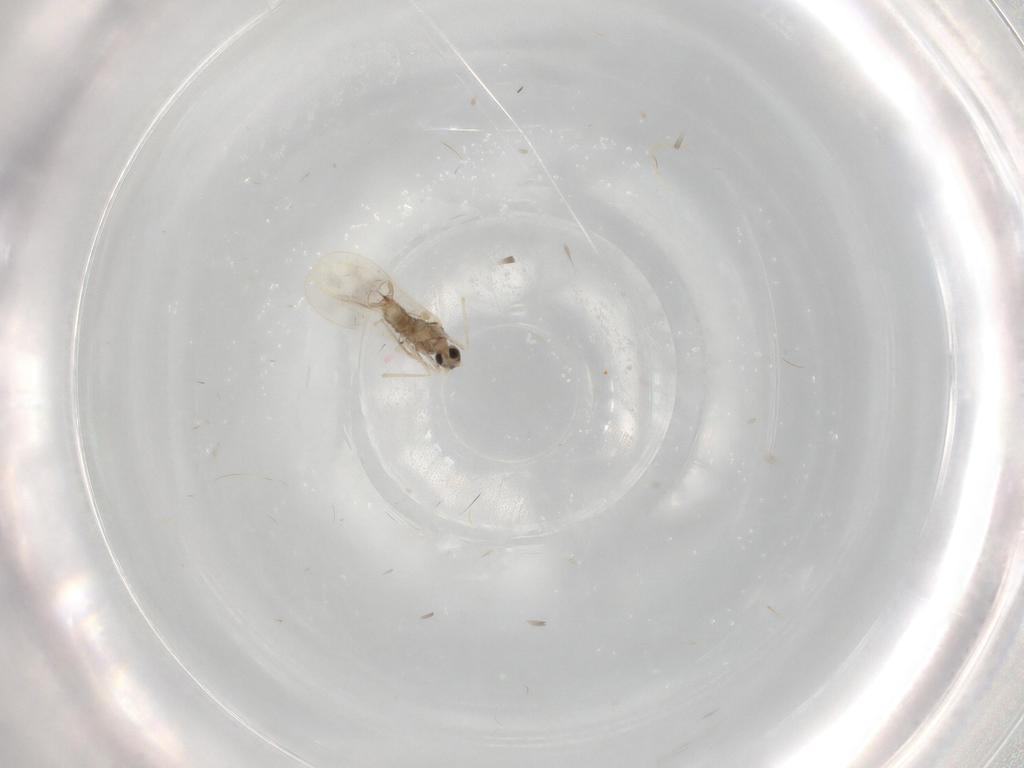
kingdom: Animalia
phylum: Arthropoda
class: Insecta
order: Diptera
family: Cecidomyiidae
